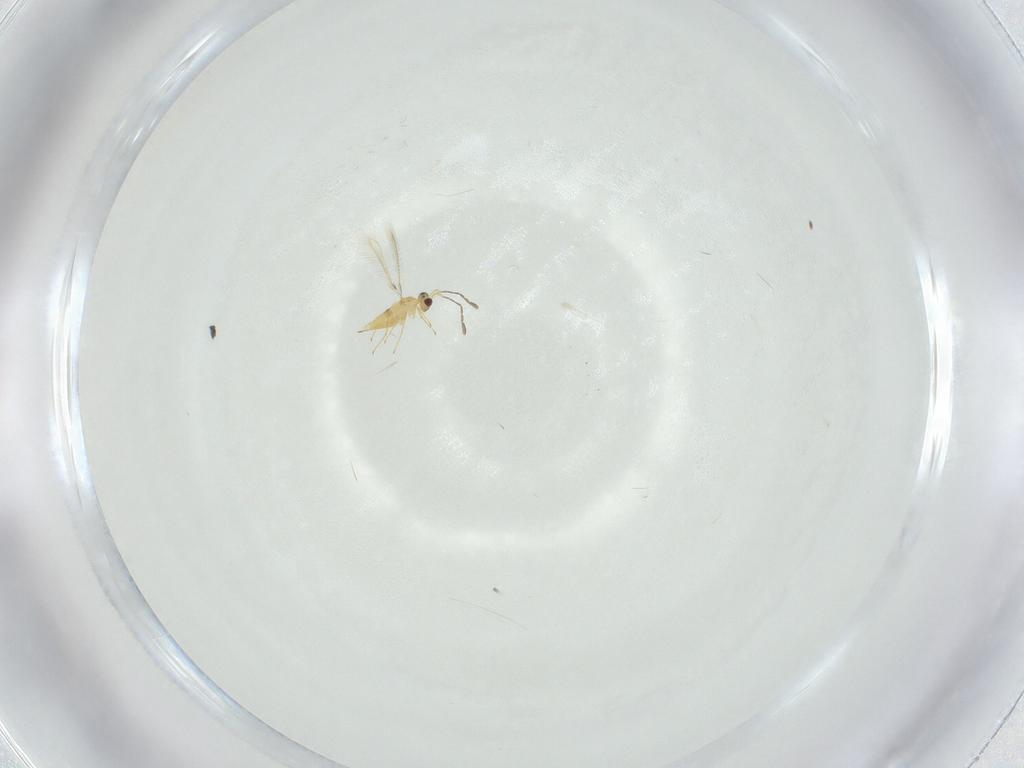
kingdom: Animalia
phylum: Arthropoda
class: Insecta
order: Hymenoptera
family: Mymaridae
